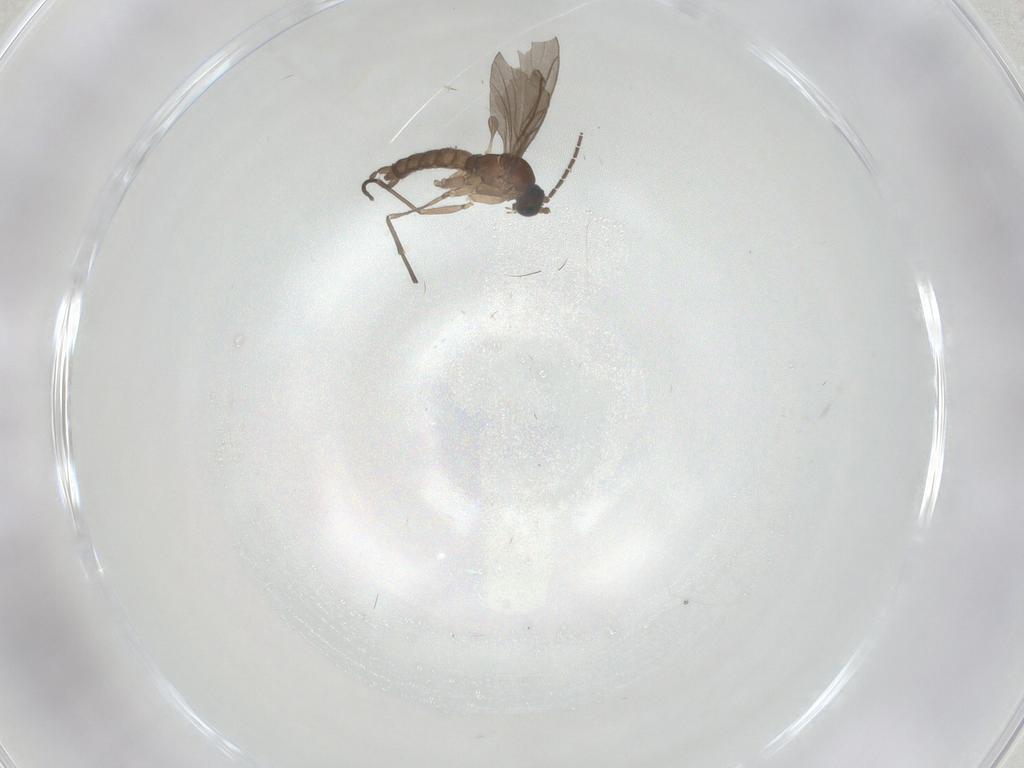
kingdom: Animalia
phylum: Arthropoda
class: Insecta
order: Diptera
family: Sciaridae
